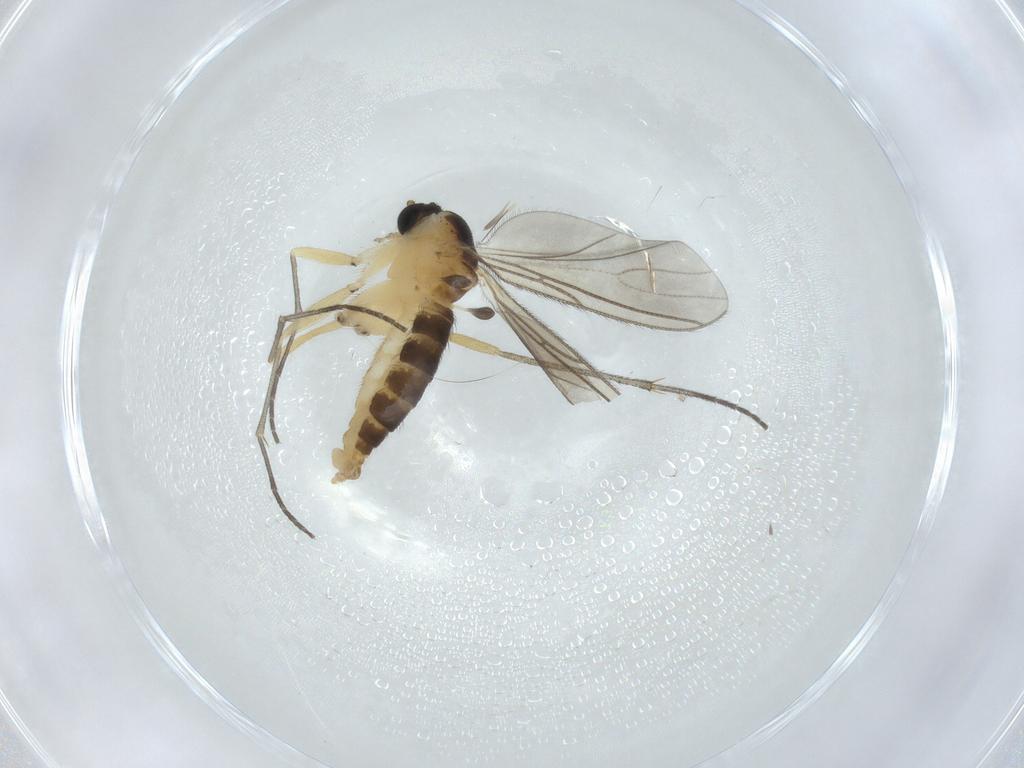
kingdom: Animalia
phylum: Arthropoda
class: Insecta
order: Diptera
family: Sciaridae
